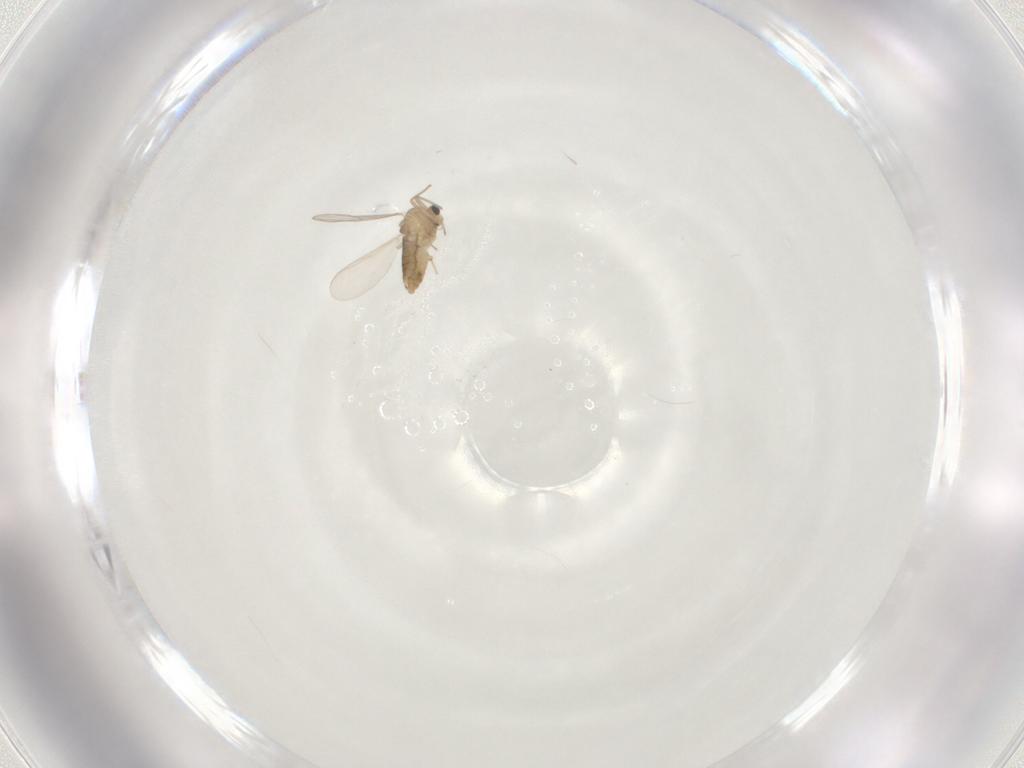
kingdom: Animalia
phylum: Arthropoda
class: Insecta
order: Diptera
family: Chironomidae
